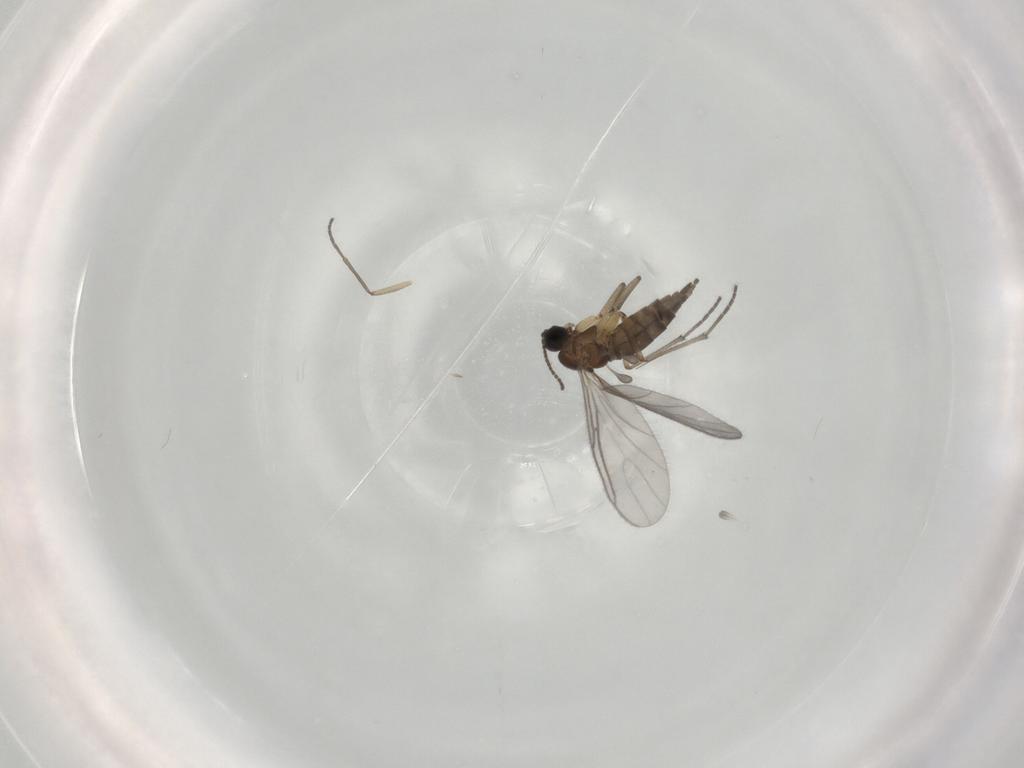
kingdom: Animalia
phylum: Arthropoda
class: Insecta
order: Diptera
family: Sciaridae
